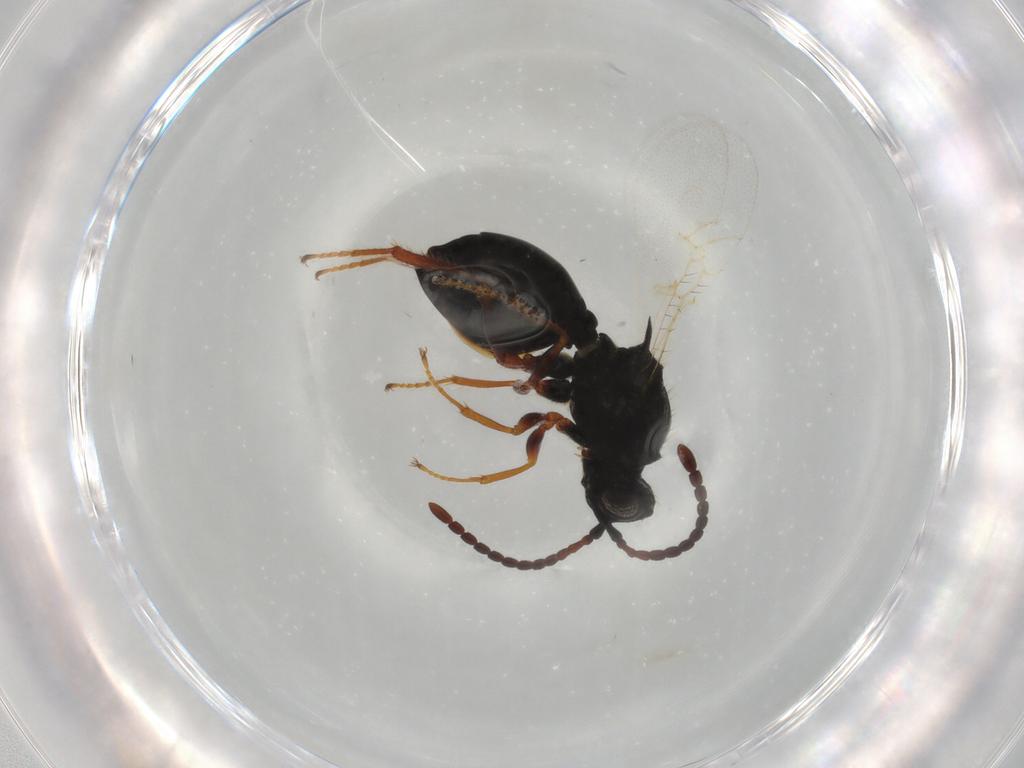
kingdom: Animalia
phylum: Arthropoda
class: Insecta
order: Hymenoptera
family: Figitidae
